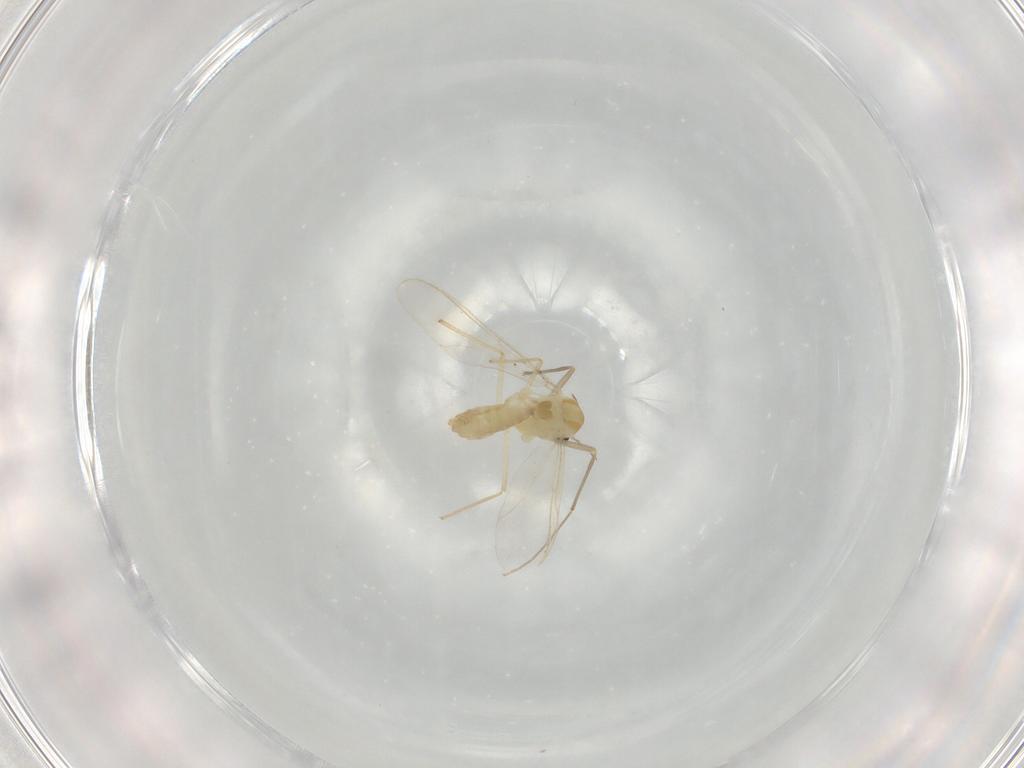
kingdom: Animalia
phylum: Arthropoda
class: Insecta
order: Diptera
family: Chironomidae
